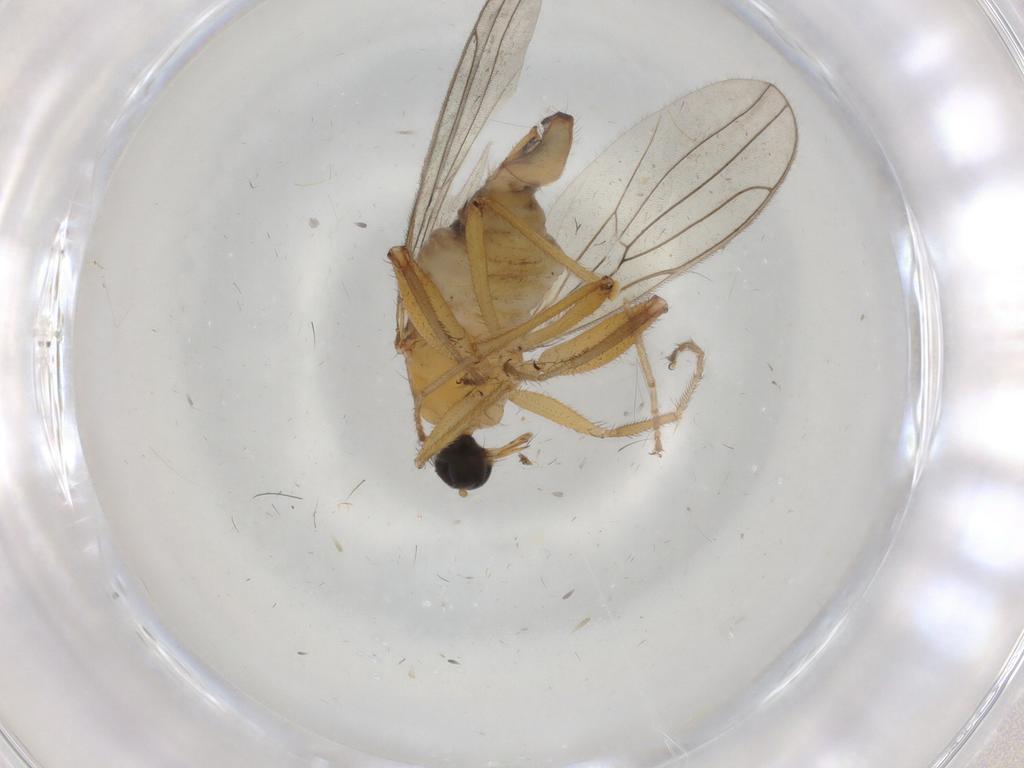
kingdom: Animalia
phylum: Arthropoda
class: Insecta
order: Diptera
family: Hybotidae
